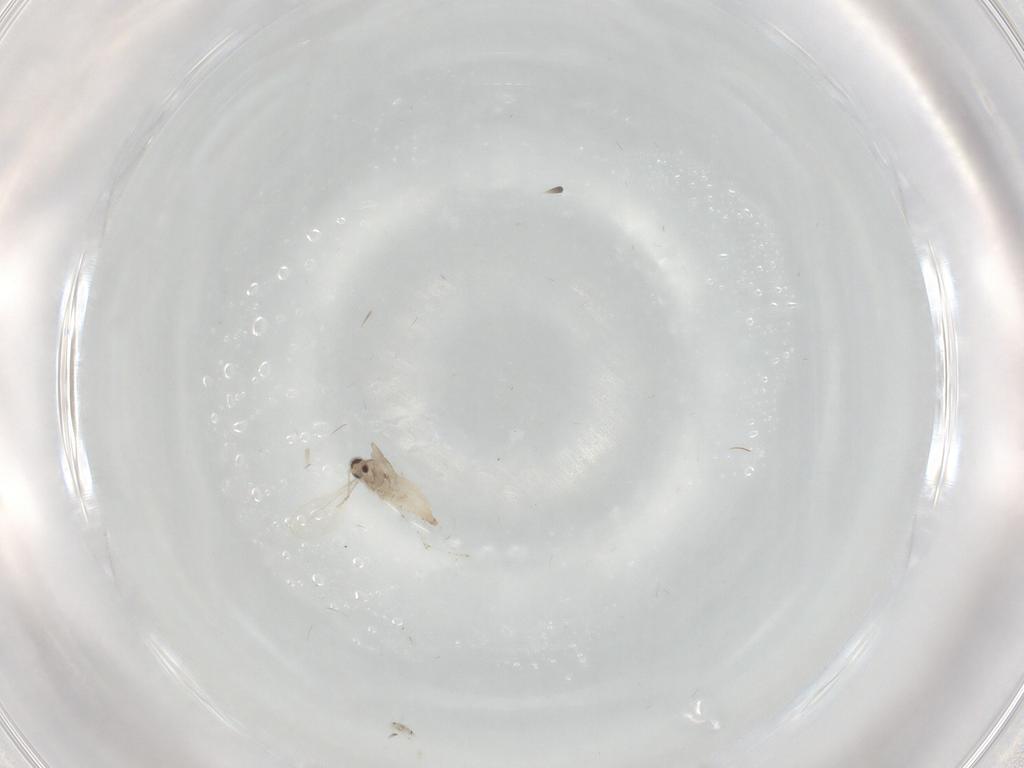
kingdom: Animalia
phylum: Arthropoda
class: Insecta
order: Diptera
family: Cecidomyiidae
